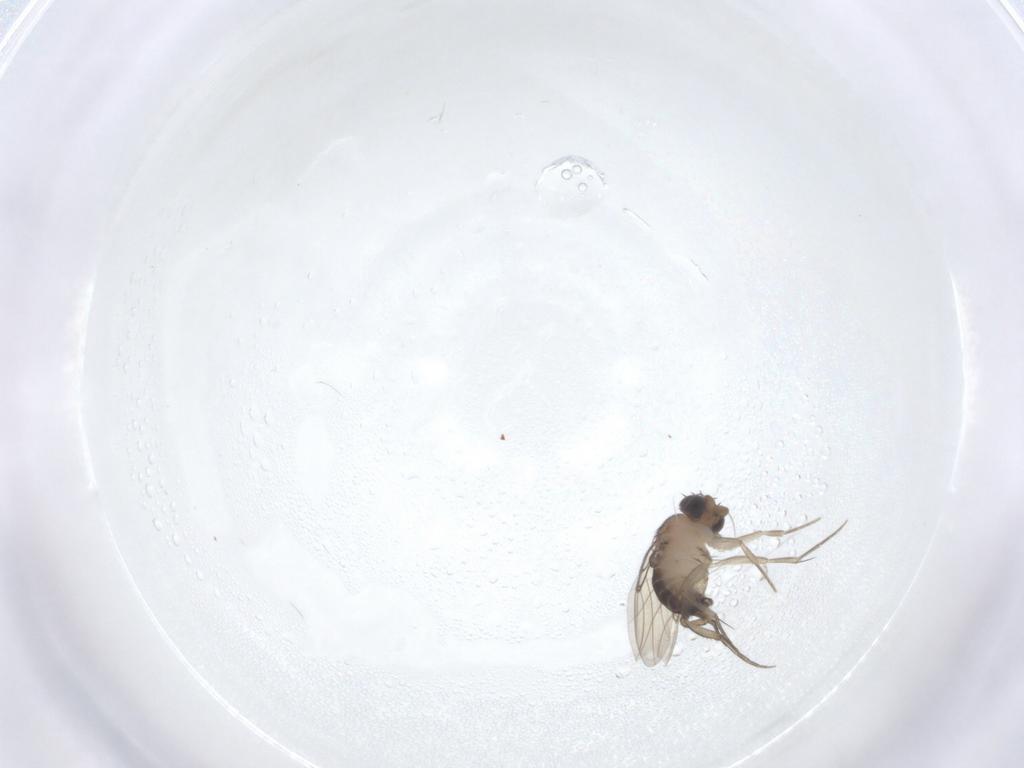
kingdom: Animalia
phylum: Arthropoda
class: Insecta
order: Diptera
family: Phoridae
